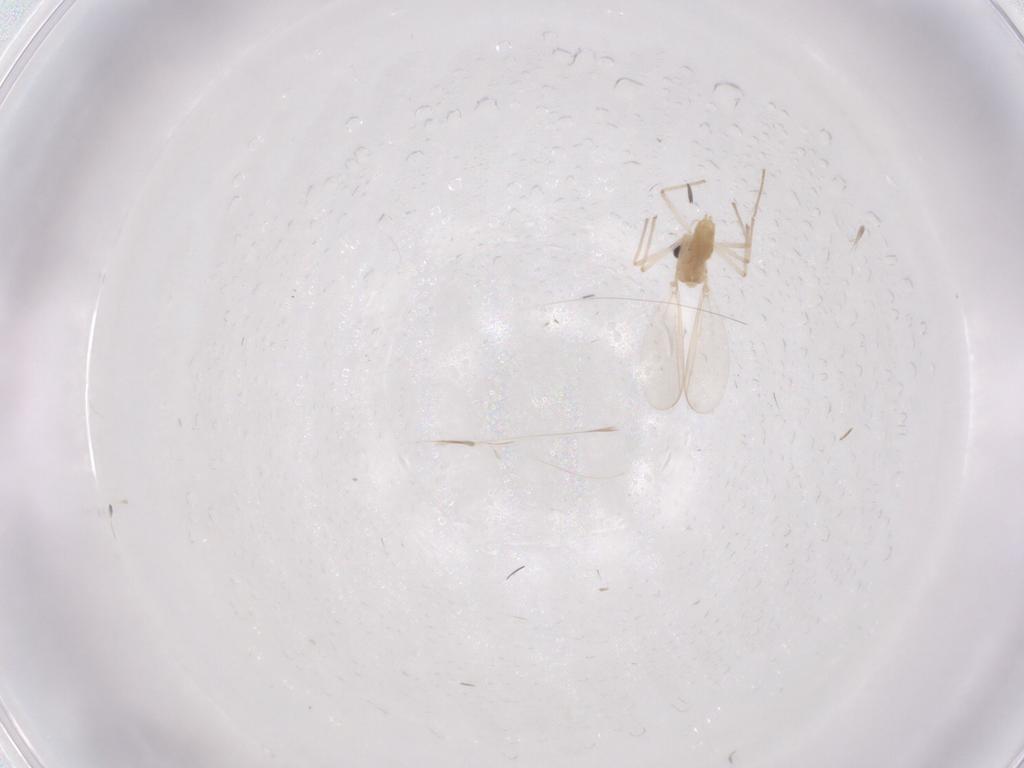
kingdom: Animalia
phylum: Arthropoda
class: Insecta
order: Diptera
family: Chironomidae
